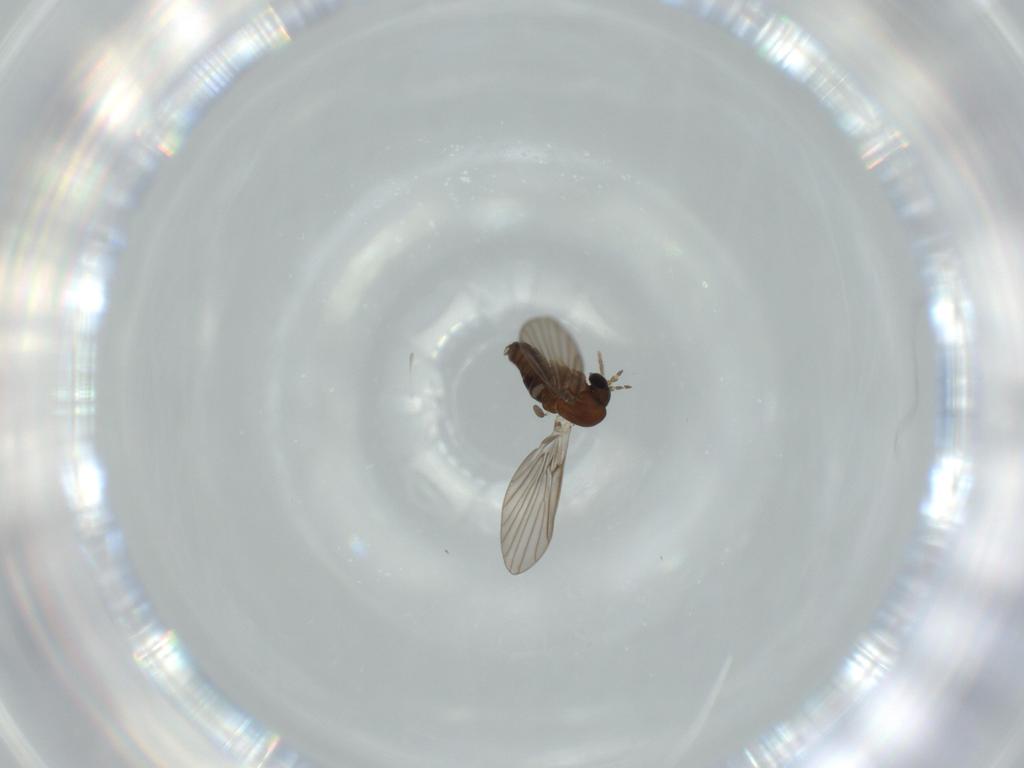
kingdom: Animalia
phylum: Arthropoda
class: Insecta
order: Diptera
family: Psychodidae
